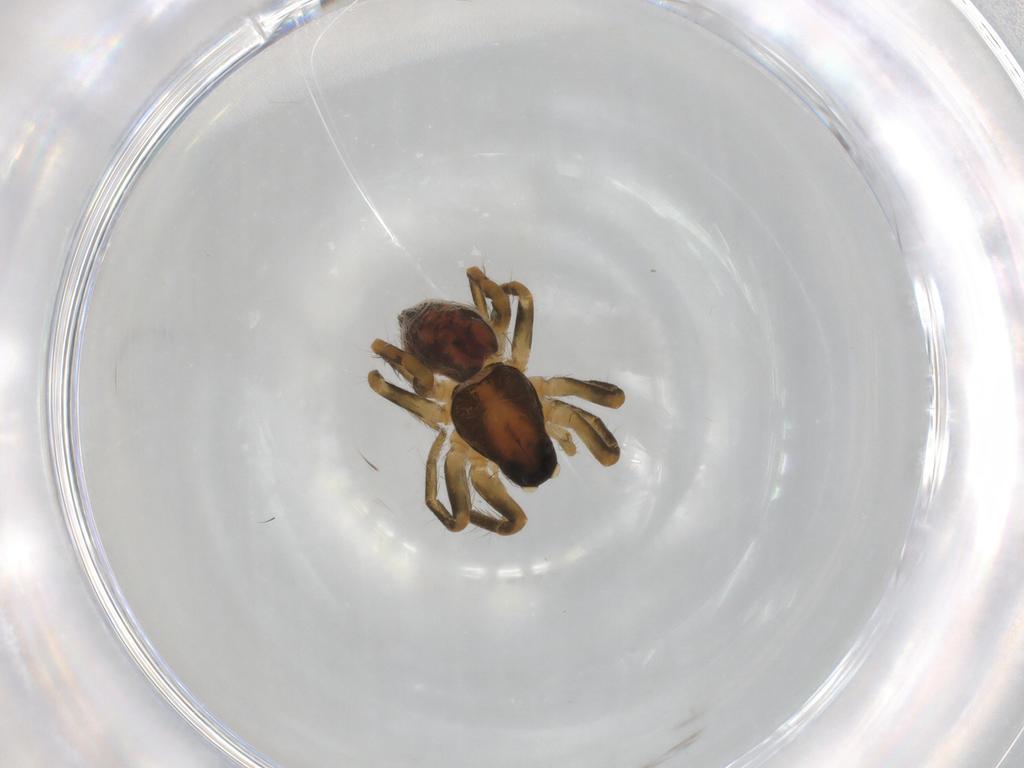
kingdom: Animalia
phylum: Arthropoda
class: Arachnida
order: Araneae
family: Lycosidae
